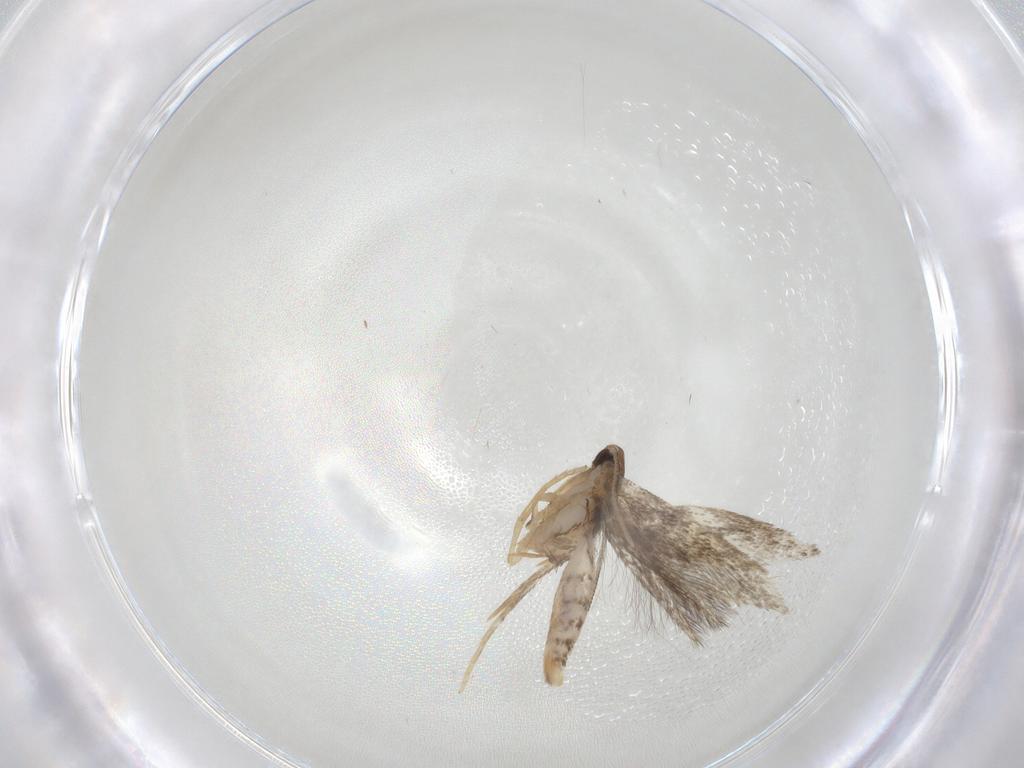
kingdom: Animalia
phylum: Arthropoda
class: Insecta
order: Lepidoptera
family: Gelechiidae
